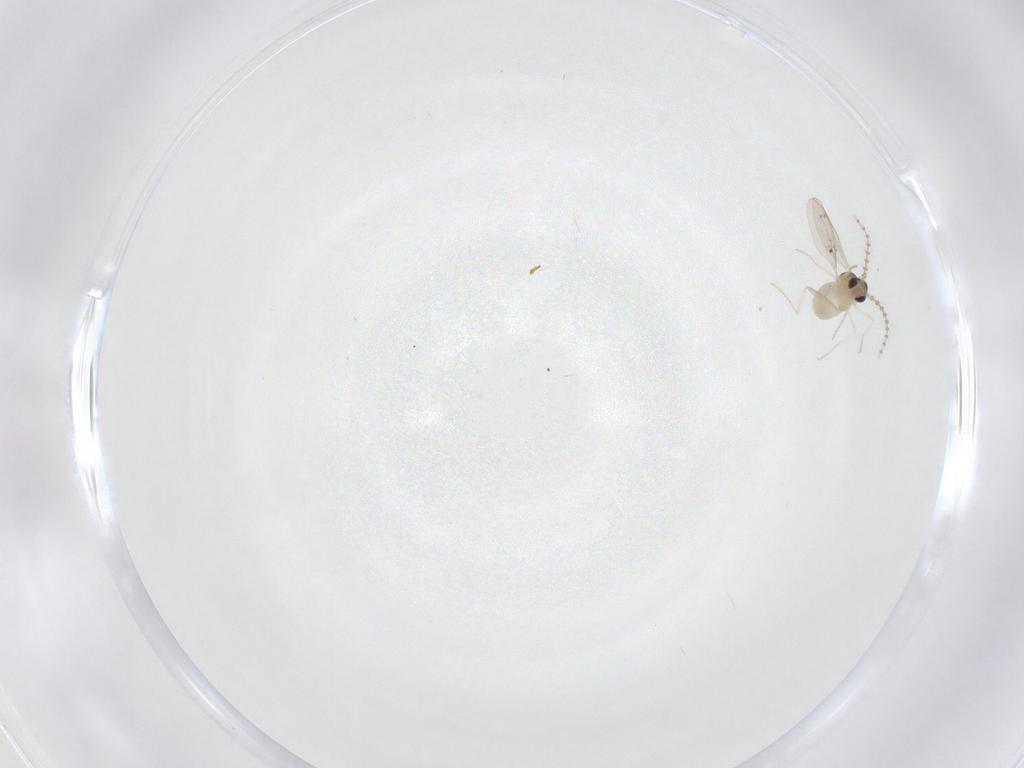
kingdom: Animalia
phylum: Arthropoda
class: Insecta
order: Diptera
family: Cecidomyiidae
